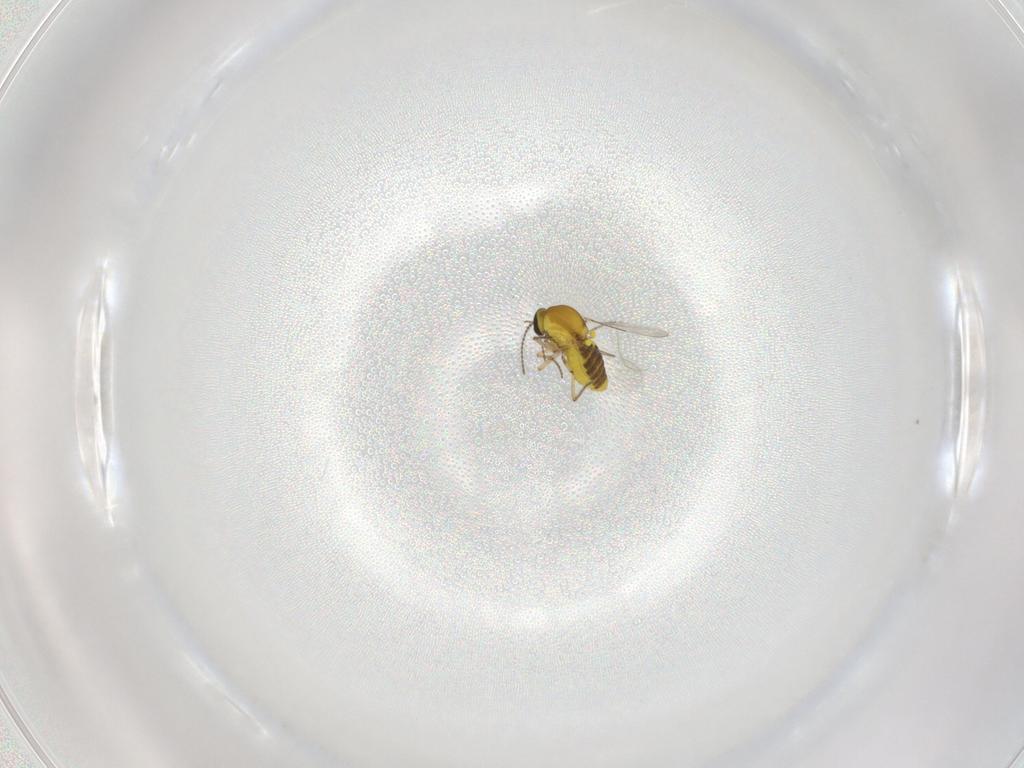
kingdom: Animalia
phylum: Arthropoda
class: Insecta
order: Diptera
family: Ceratopogonidae
